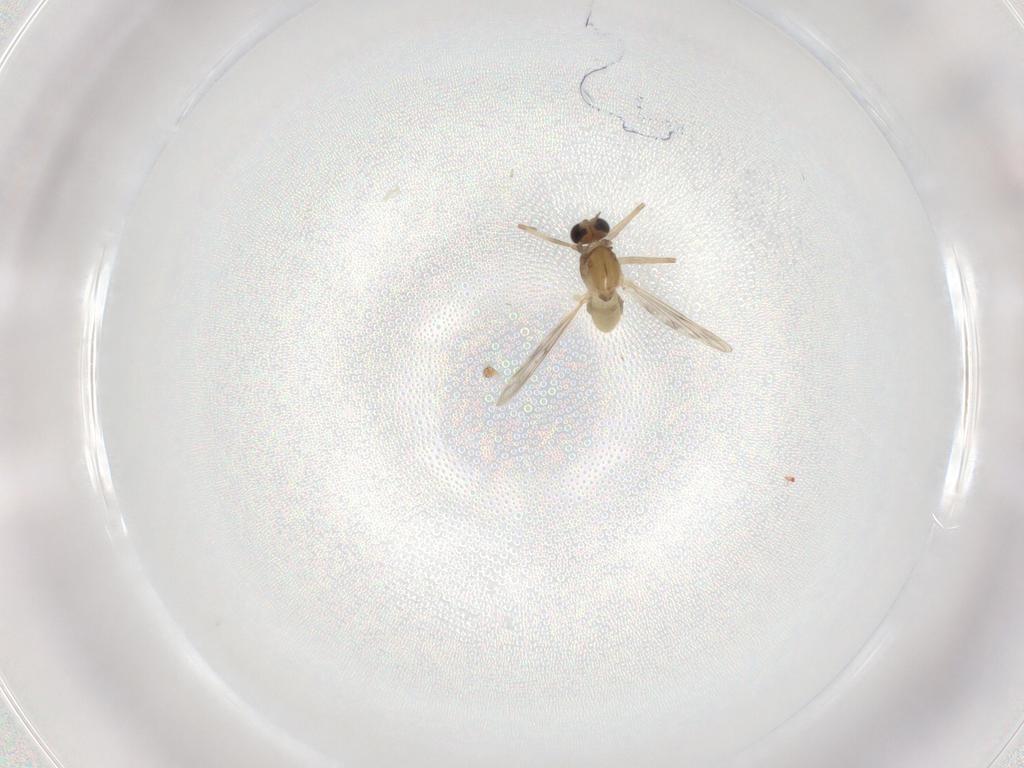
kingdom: Animalia
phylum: Arthropoda
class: Insecta
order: Diptera
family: Chironomidae
